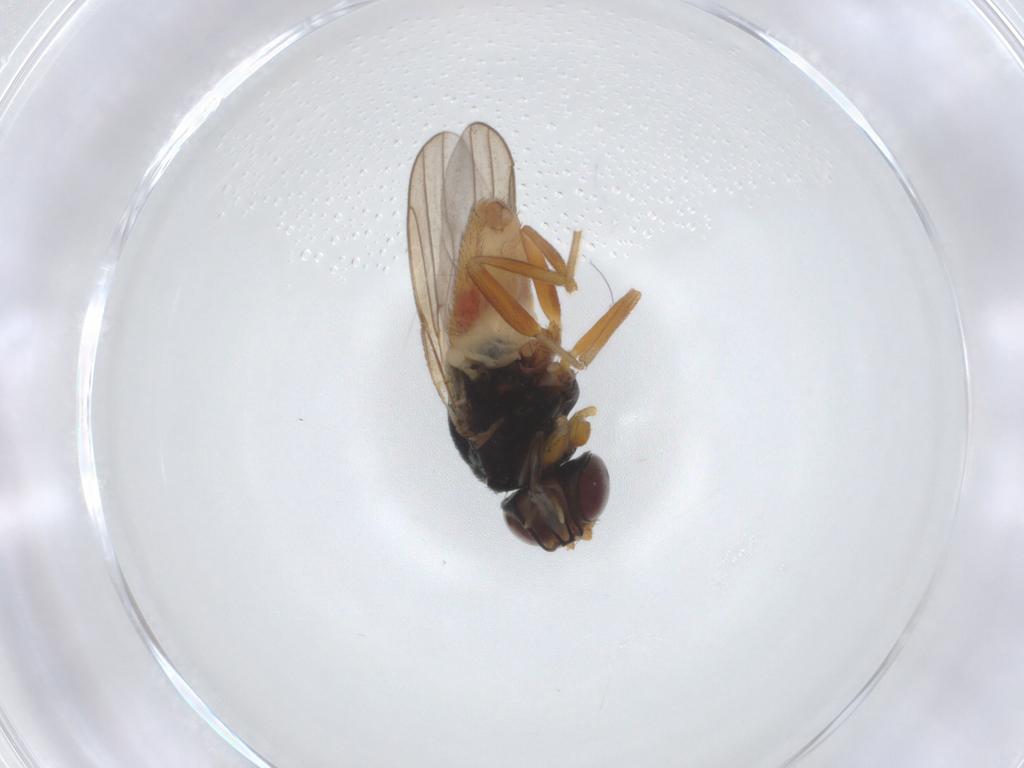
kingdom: Animalia
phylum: Arthropoda
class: Insecta
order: Diptera
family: Chloropidae
